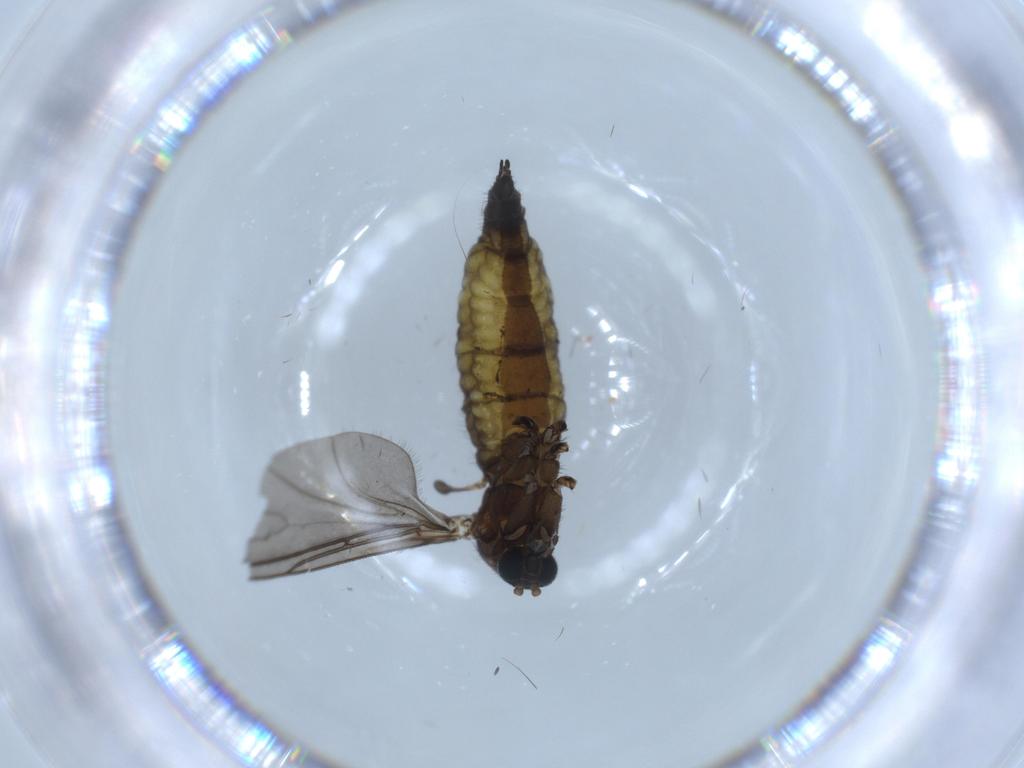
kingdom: Animalia
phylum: Arthropoda
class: Insecta
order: Diptera
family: Sciaridae
